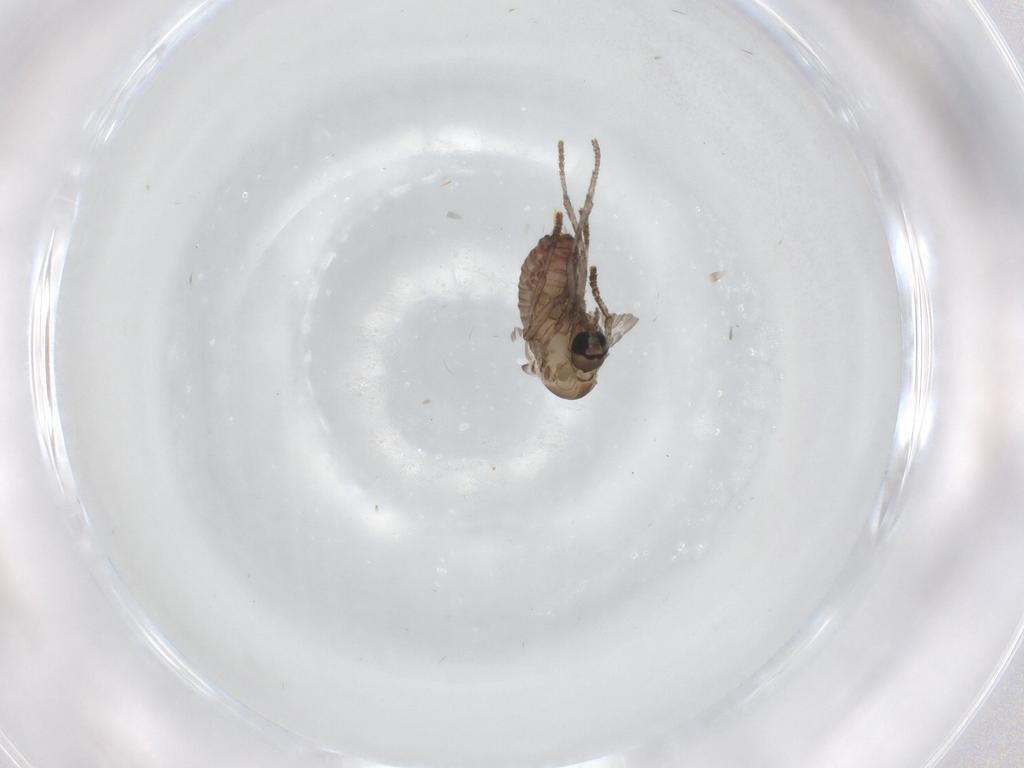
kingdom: Animalia
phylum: Arthropoda
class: Insecta
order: Diptera
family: Psychodidae
